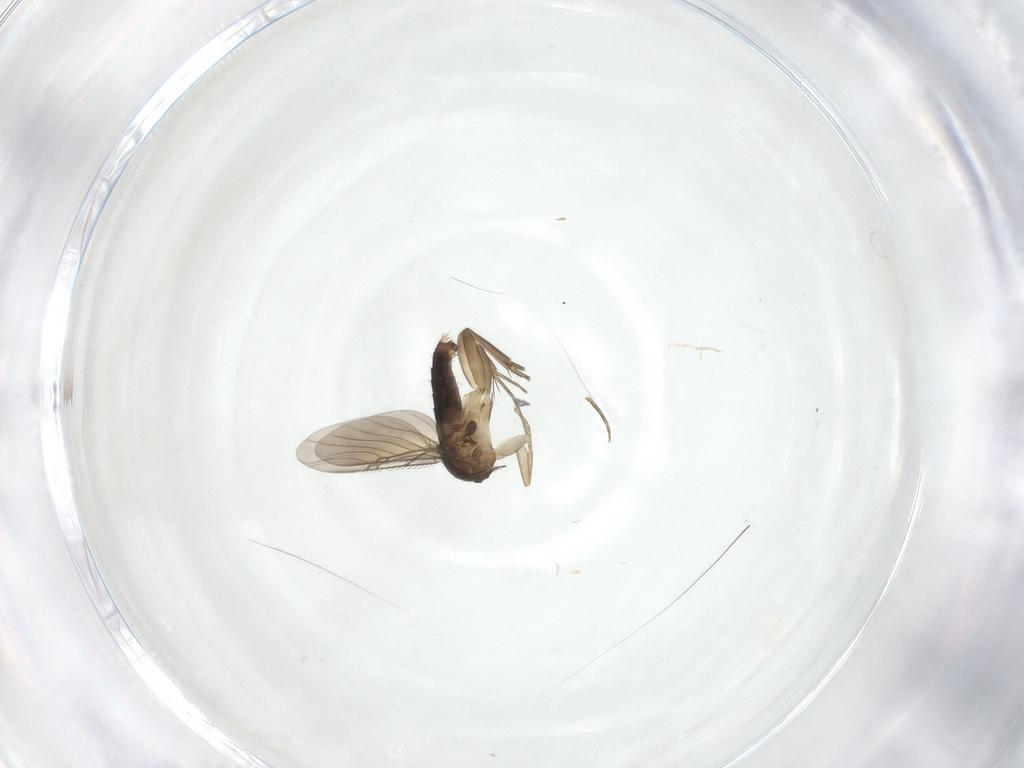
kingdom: Animalia
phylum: Arthropoda
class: Insecta
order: Diptera
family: Phoridae
